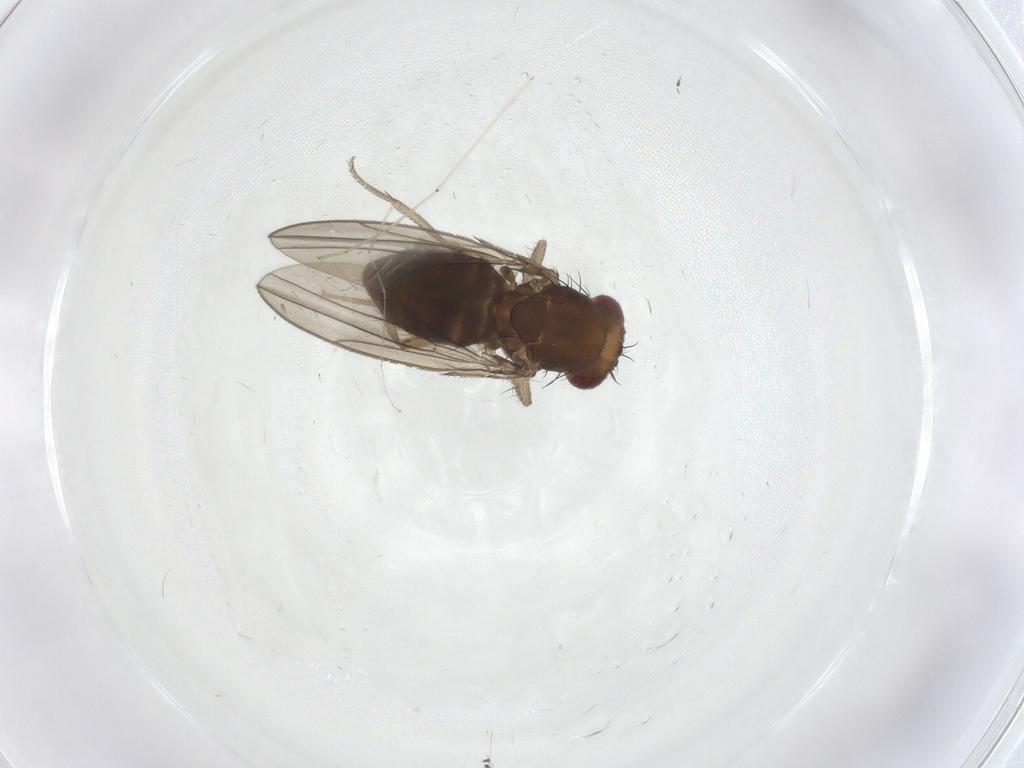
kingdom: Animalia
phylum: Arthropoda
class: Insecta
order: Diptera
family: Drosophilidae
